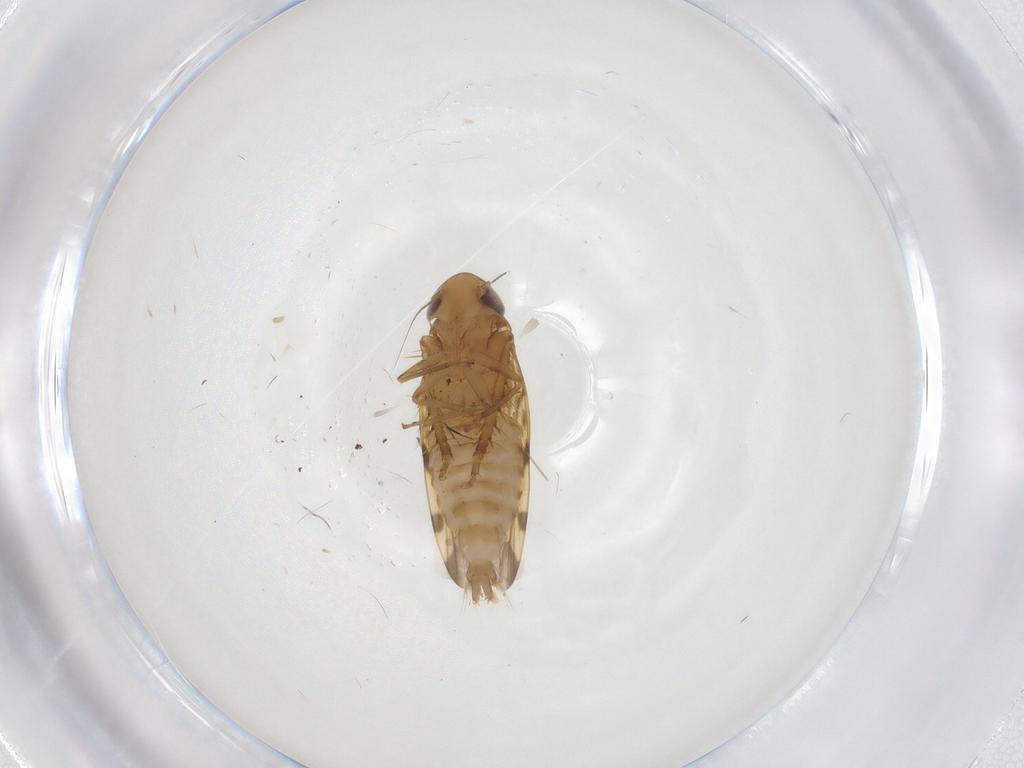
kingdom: Animalia
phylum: Arthropoda
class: Insecta
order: Hemiptera
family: Cicadellidae
